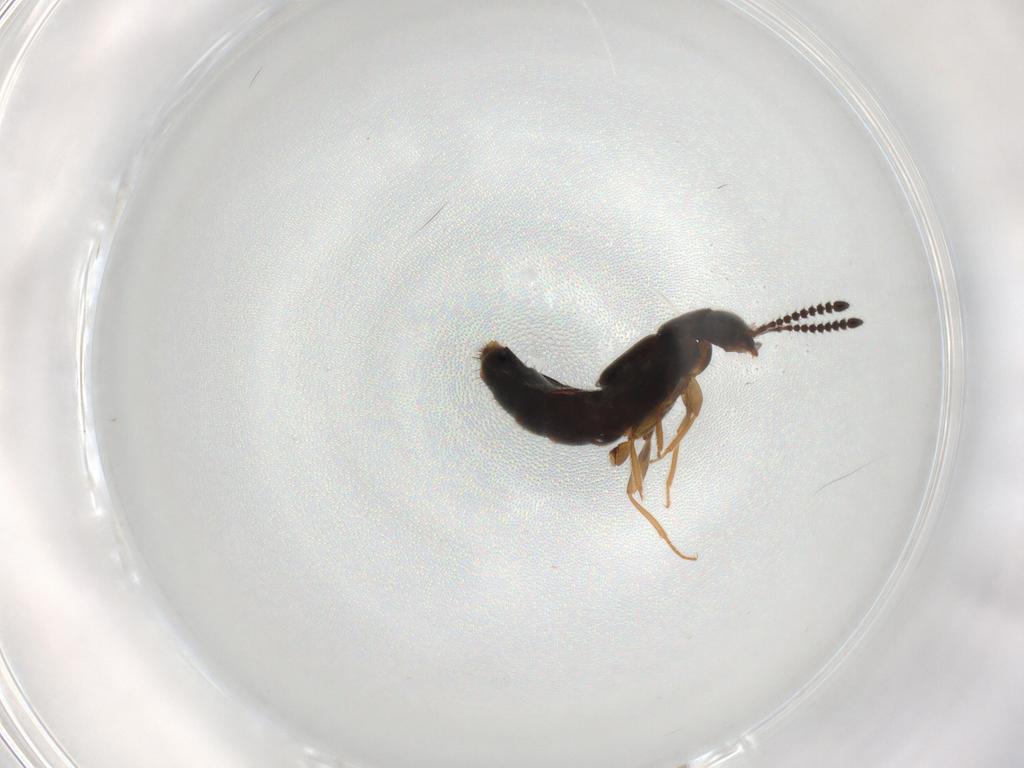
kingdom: Animalia
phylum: Arthropoda
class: Insecta
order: Coleoptera
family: Staphylinidae
